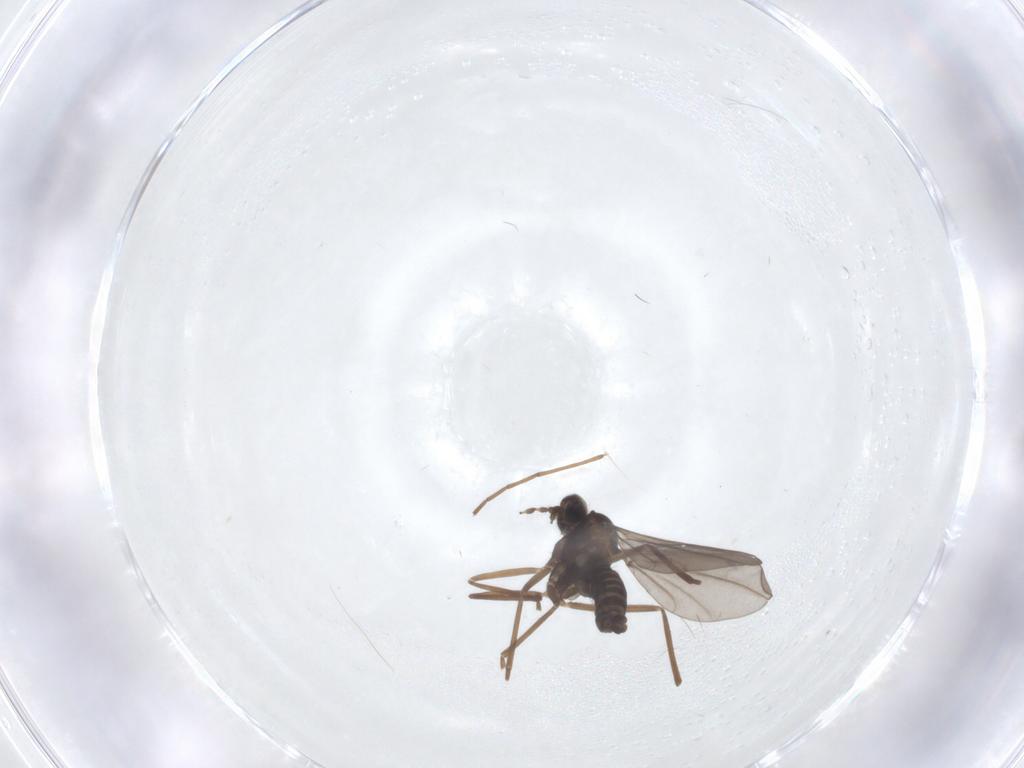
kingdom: Animalia
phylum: Arthropoda
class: Insecta
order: Diptera
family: Cecidomyiidae
